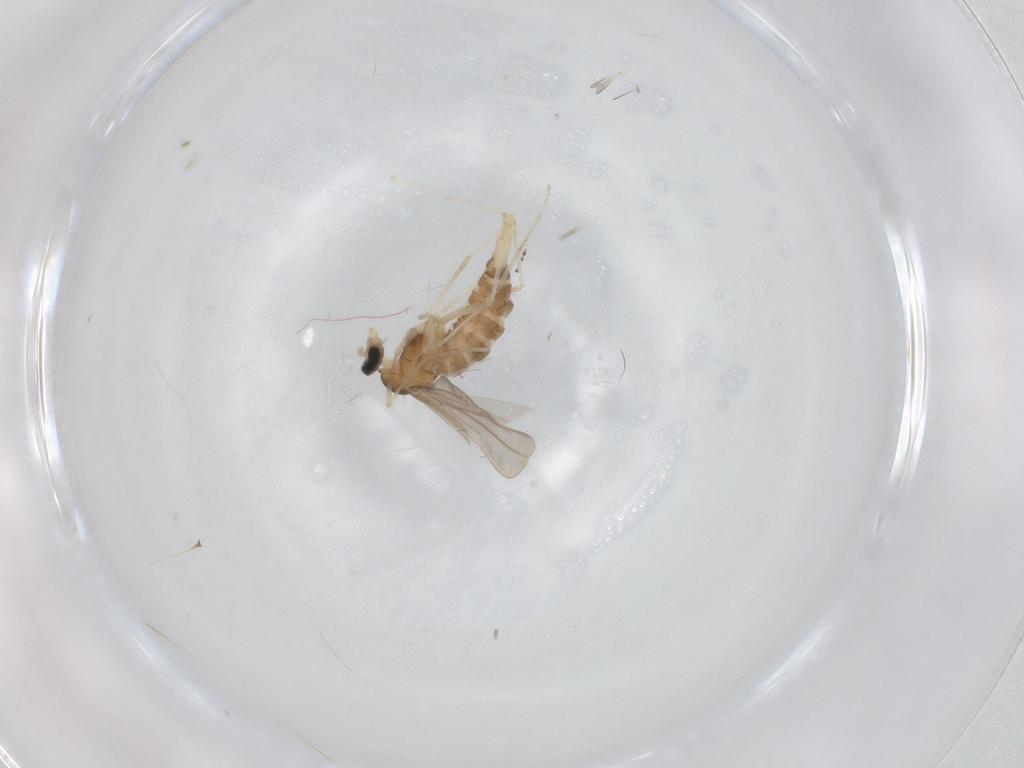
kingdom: Animalia
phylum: Arthropoda
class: Insecta
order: Diptera
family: Cecidomyiidae
